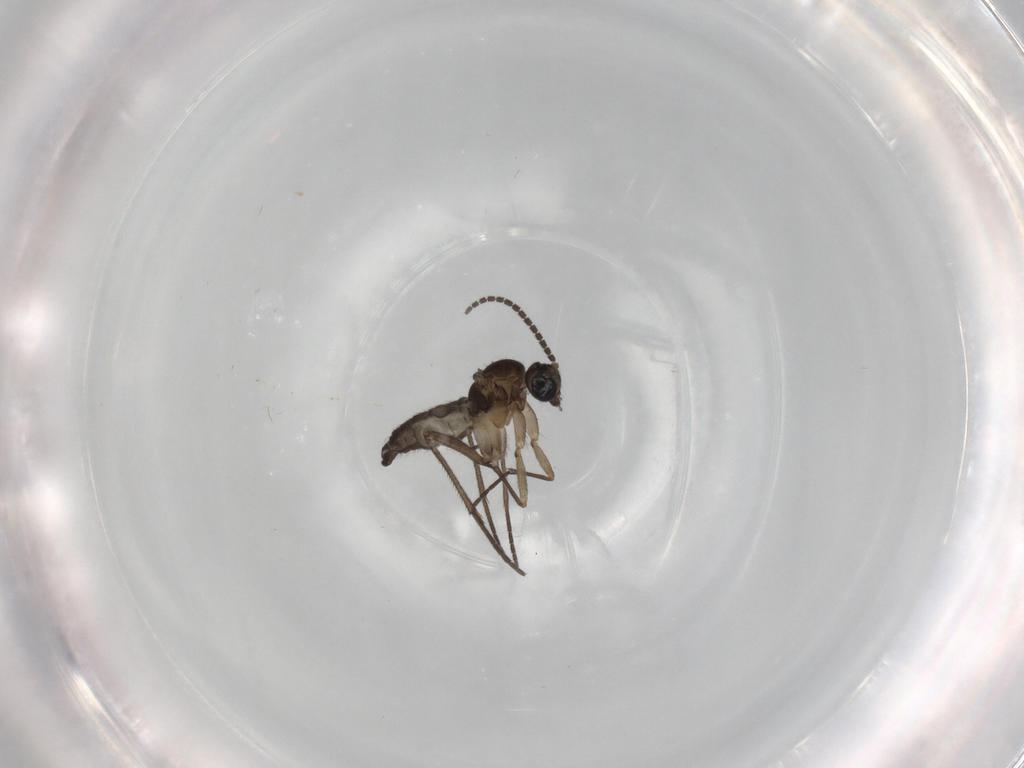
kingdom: Animalia
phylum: Arthropoda
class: Insecta
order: Diptera
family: Sciaridae
